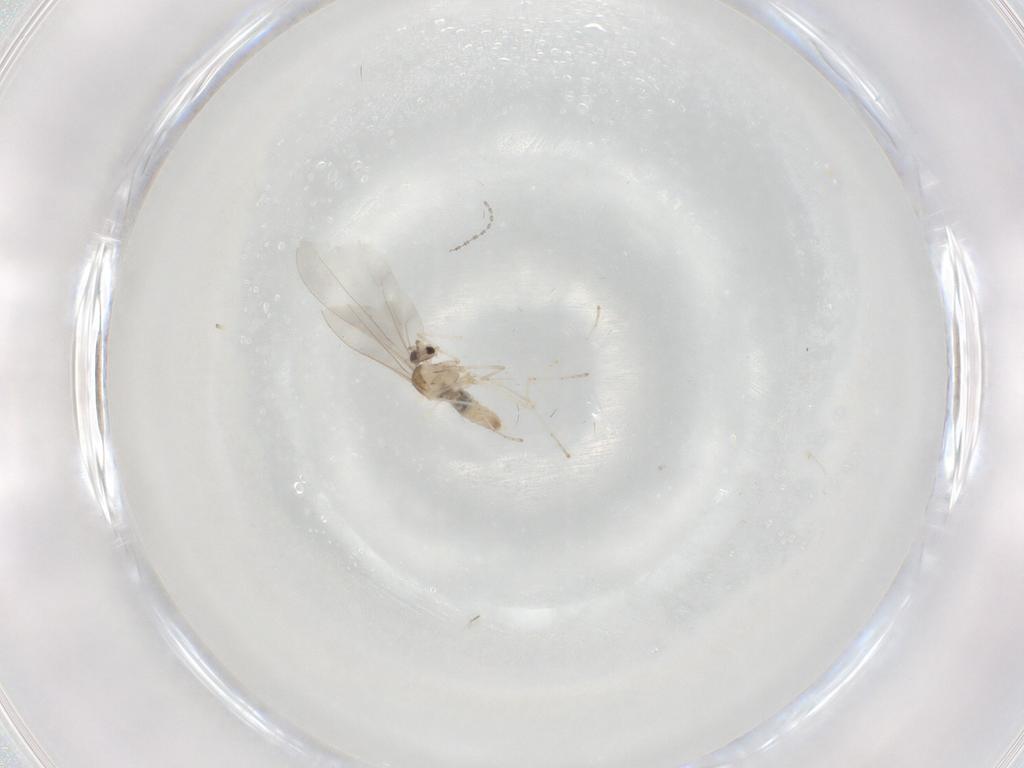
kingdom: Animalia
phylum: Arthropoda
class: Insecta
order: Diptera
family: Cecidomyiidae
